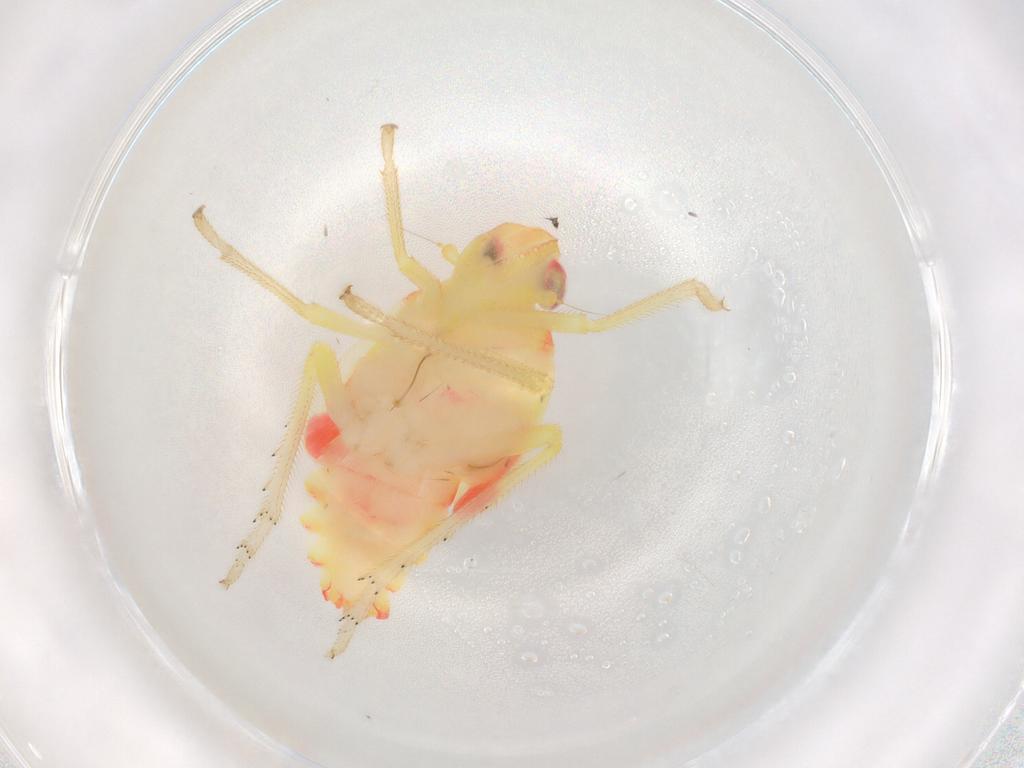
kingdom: Animalia
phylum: Arthropoda
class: Insecta
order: Hemiptera
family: Tropiduchidae
